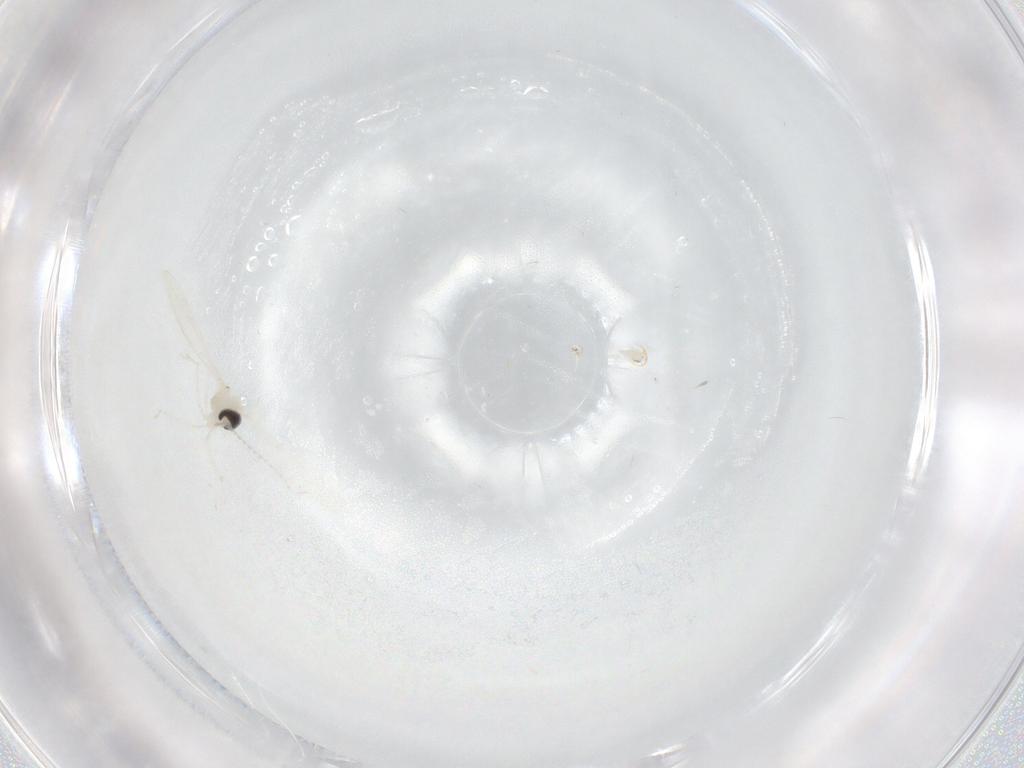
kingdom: Animalia
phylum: Arthropoda
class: Insecta
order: Diptera
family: Cecidomyiidae
